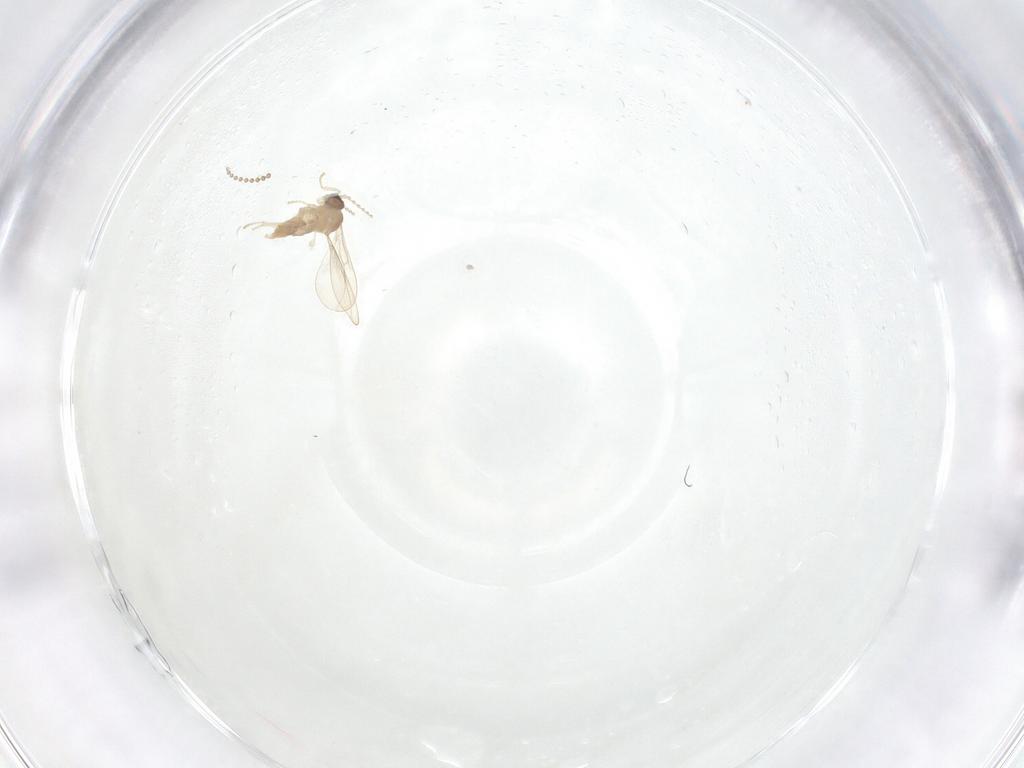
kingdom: Animalia
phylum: Arthropoda
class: Insecta
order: Diptera
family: Cecidomyiidae
